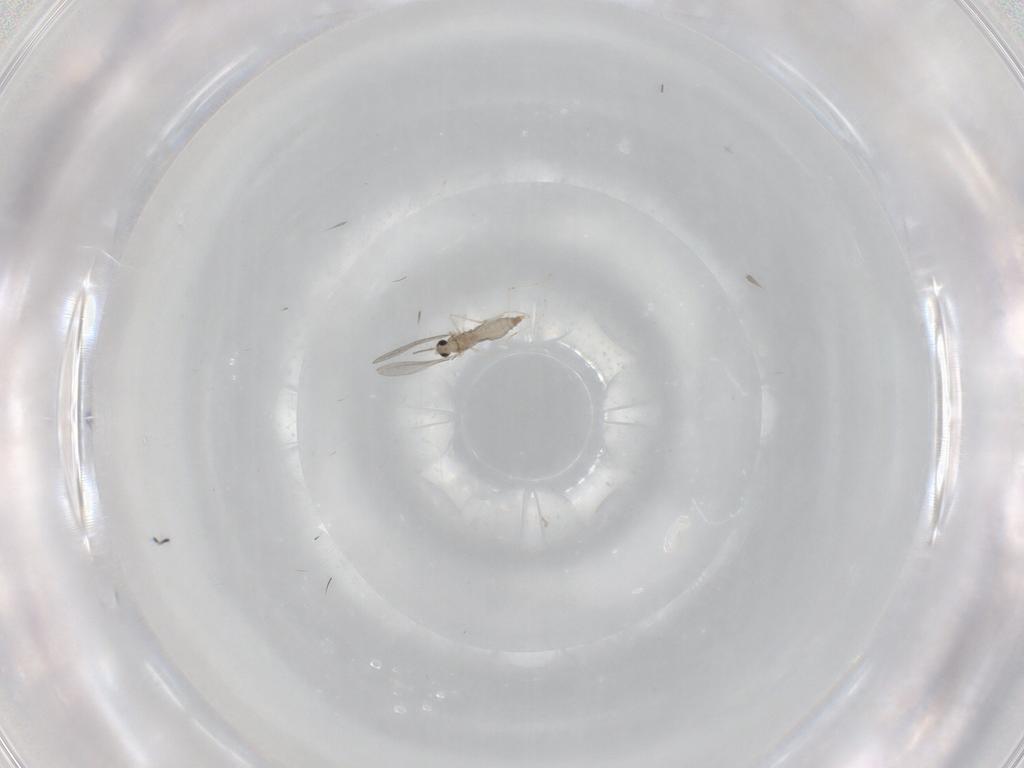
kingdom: Animalia
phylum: Arthropoda
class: Insecta
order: Diptera
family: Cecidomyiidae
